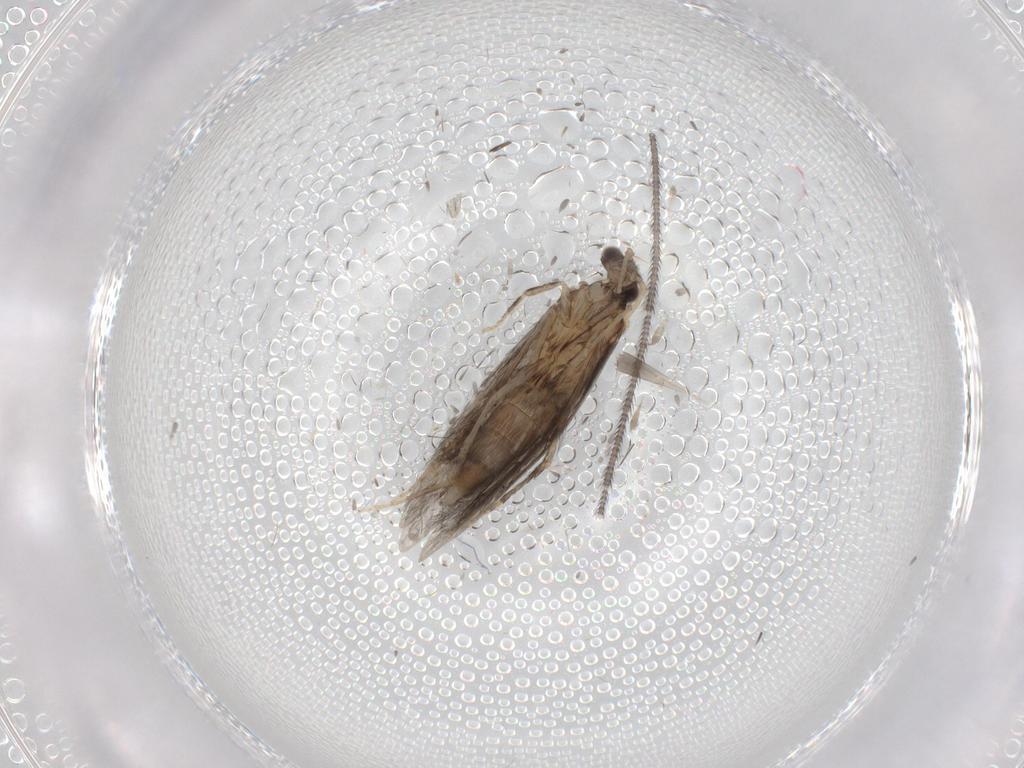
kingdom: Animalia
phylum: Arthropoda
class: Insecta
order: Trichoptera
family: Hydroptilidae
